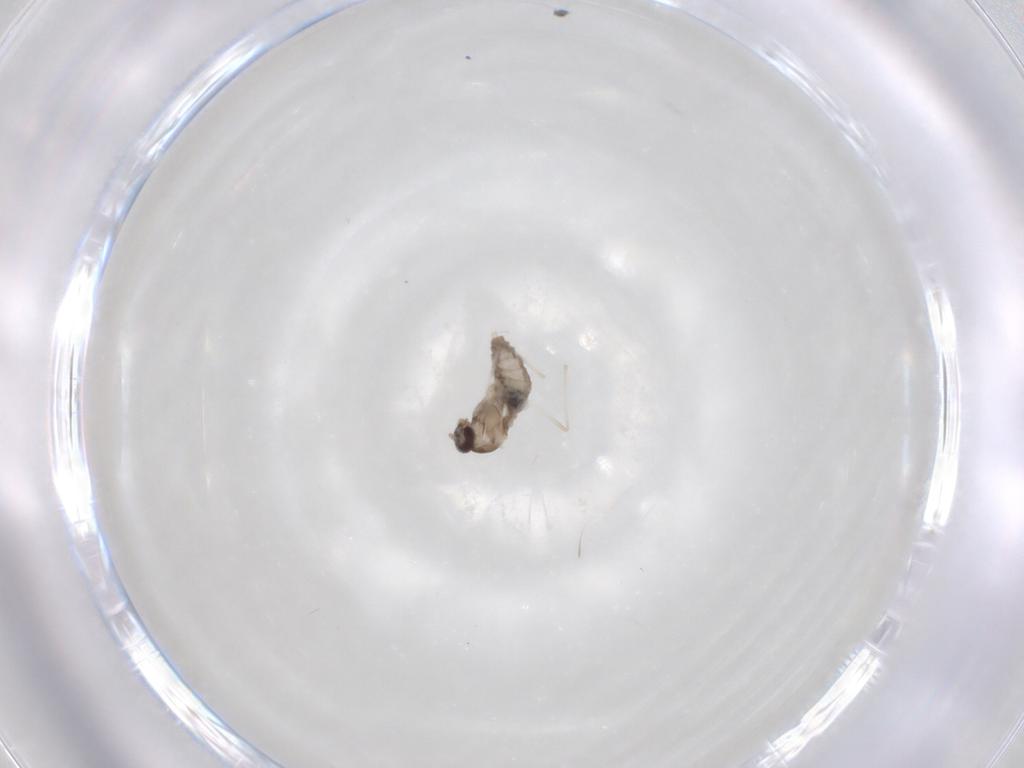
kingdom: Animalia
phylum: Arthropoda
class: Insecta
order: Diptera
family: Cecidomyiidae
